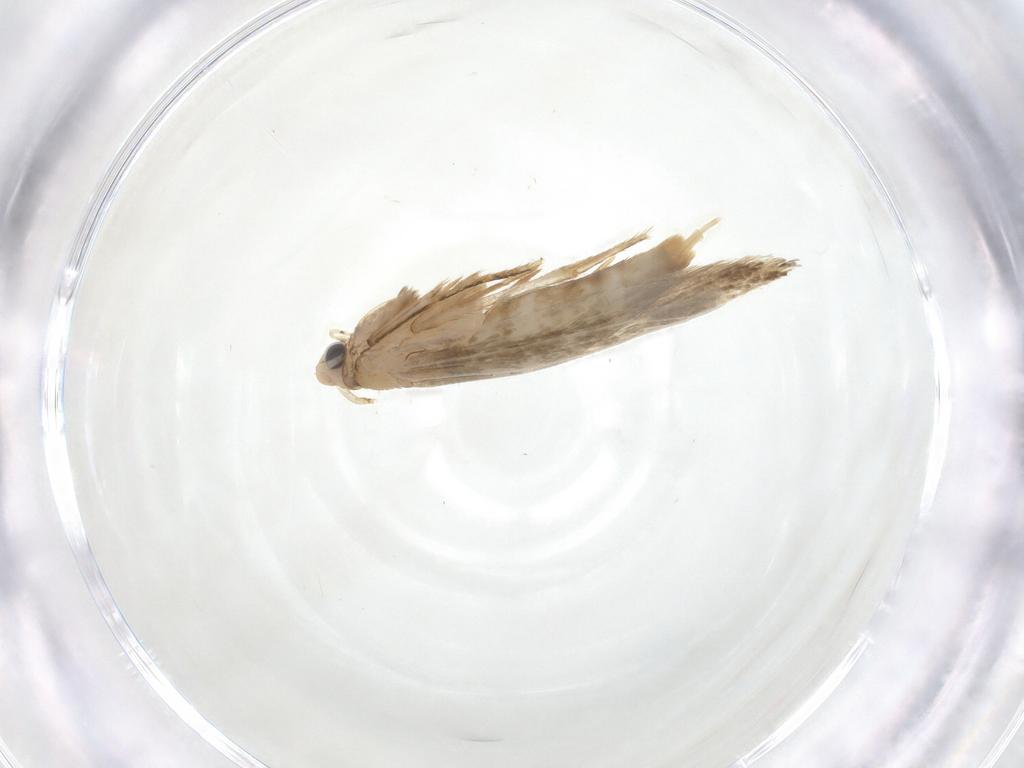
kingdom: Animalia
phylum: Arthropoda
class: Insecta
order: Lepidoptera
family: Tineidae
